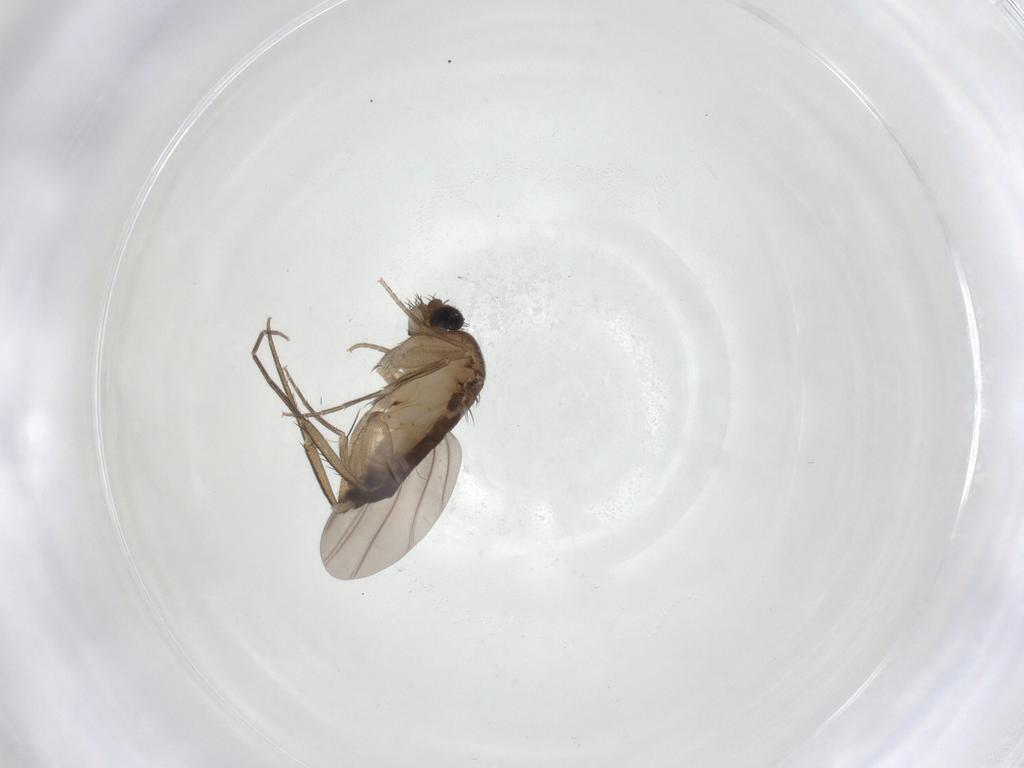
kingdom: Animalia
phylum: Arthropoda
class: Insecta
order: Diptera
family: Phoridae
